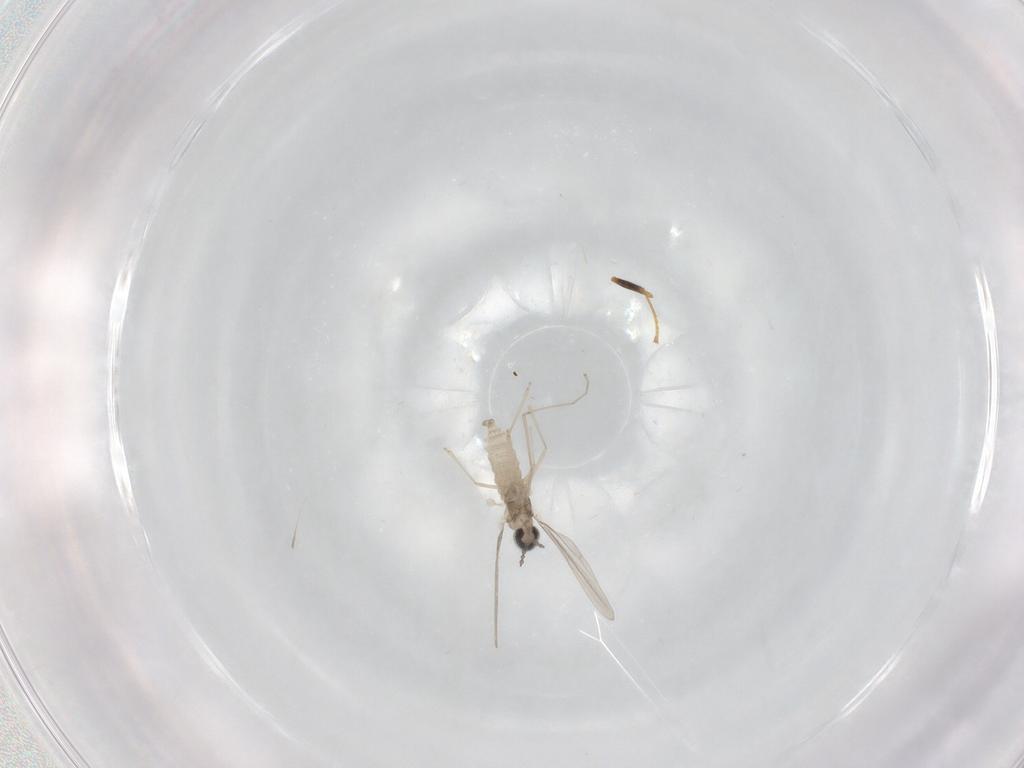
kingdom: Animalia
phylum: Arthropoda
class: Insecta
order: Diptera
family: Cecidomyiidae
